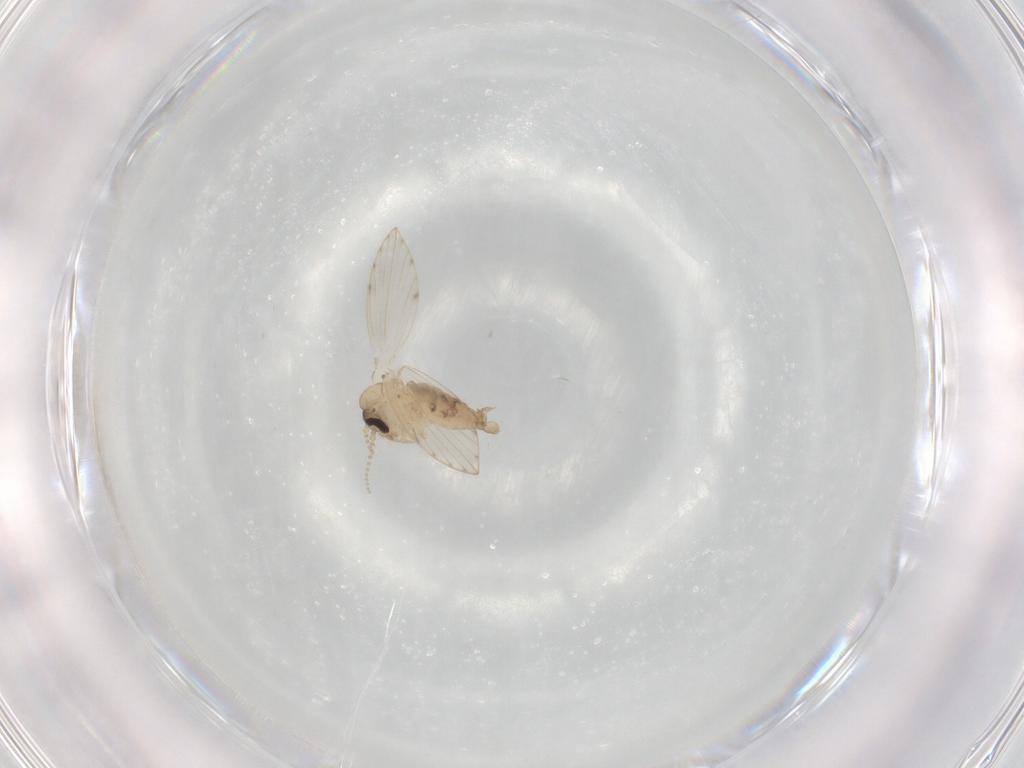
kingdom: Animalia
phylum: Arthropoda
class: Insecta
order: Diptera
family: Psychodidae
